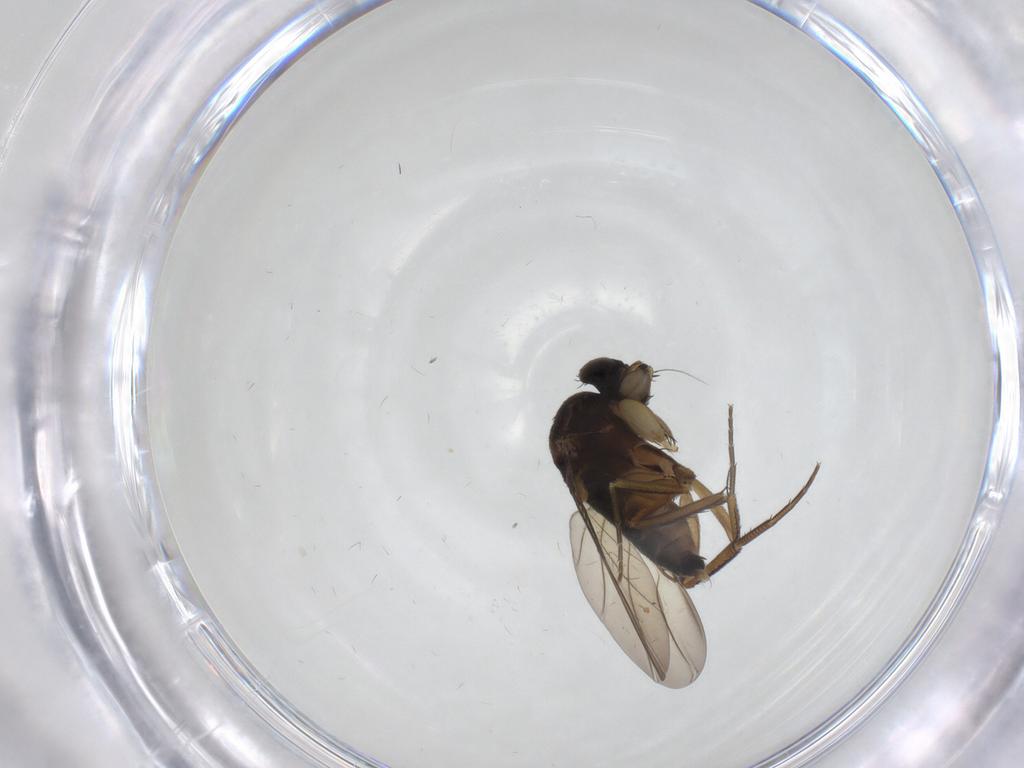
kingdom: Animalia
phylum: Arthropoda
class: Insecta
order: Diptera
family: Phoridae
